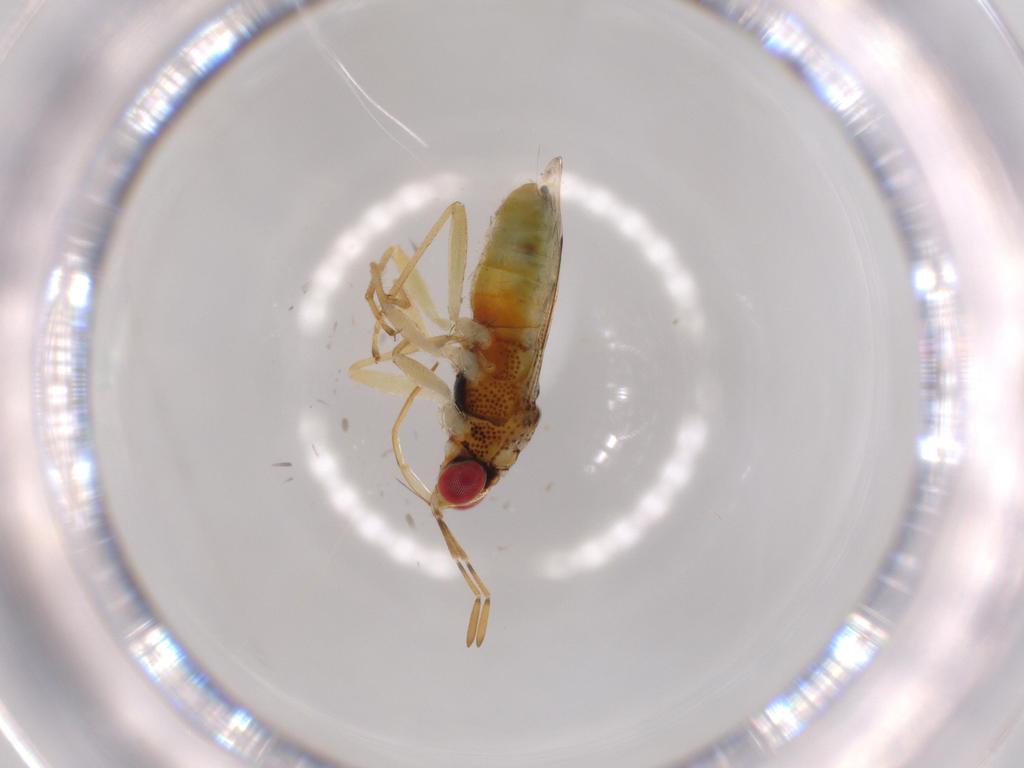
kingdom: Animalia
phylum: Arthropoda
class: Insecta
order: Hemiptera
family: Geocoridae
